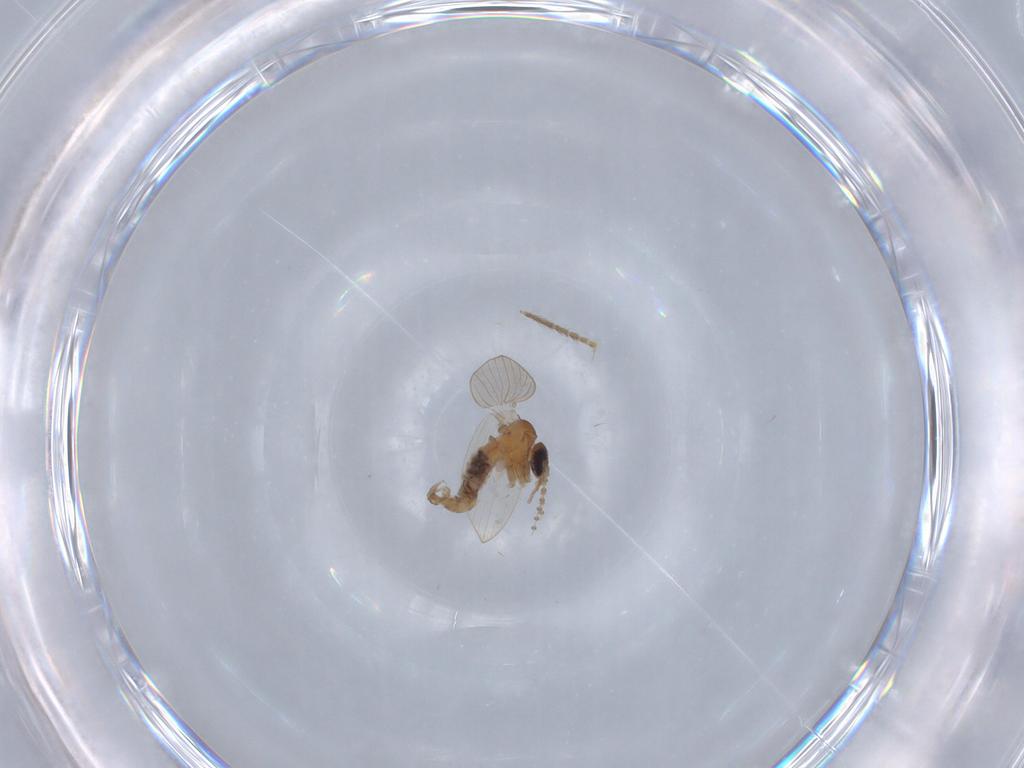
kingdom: Animalia
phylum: Arthropoda
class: Insecta
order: Diptera
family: Psychodidae
